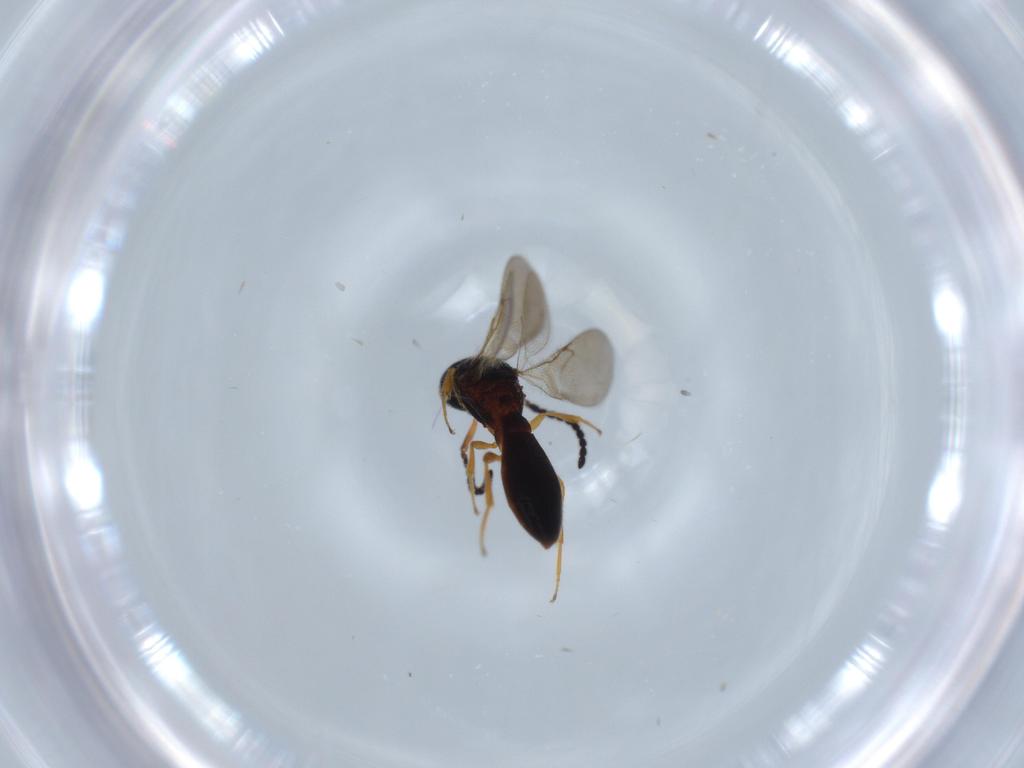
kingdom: Animalia
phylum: Arthropoda
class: Insecta
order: Hymenoptera
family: Scelionidae
